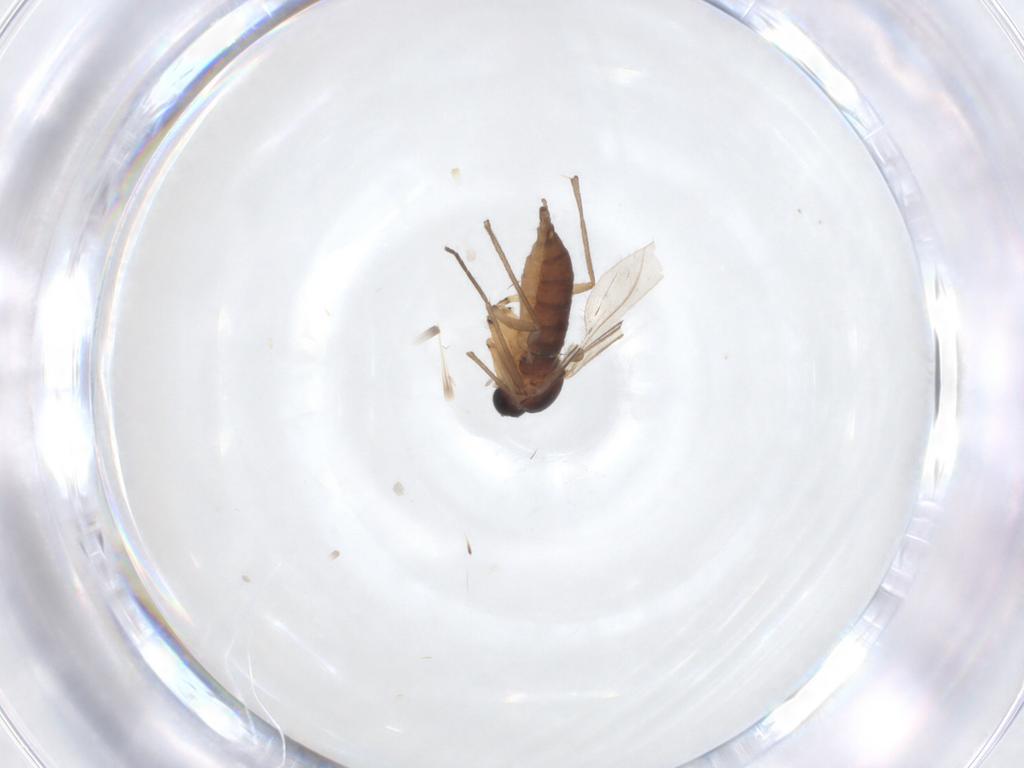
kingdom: Animalia
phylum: Arthropoda
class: Insecta
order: Diptera
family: Sciaridae
